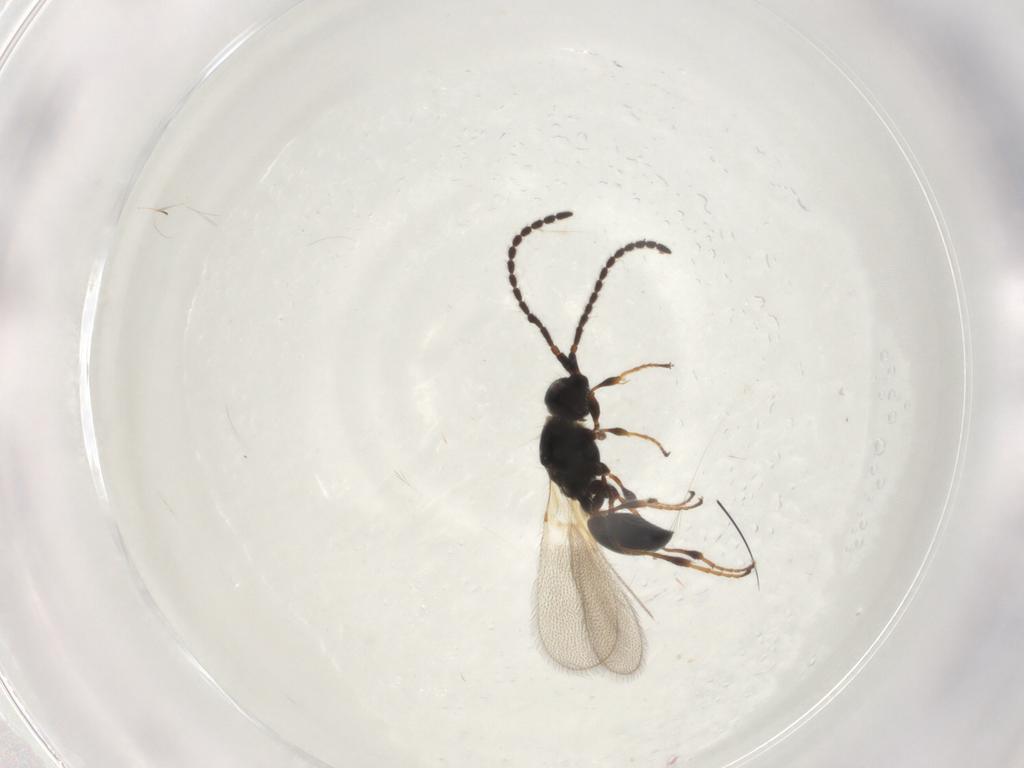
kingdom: Animalia
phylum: Arthropoda
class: Insecta
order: Hymenoptera
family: Diapriidae
